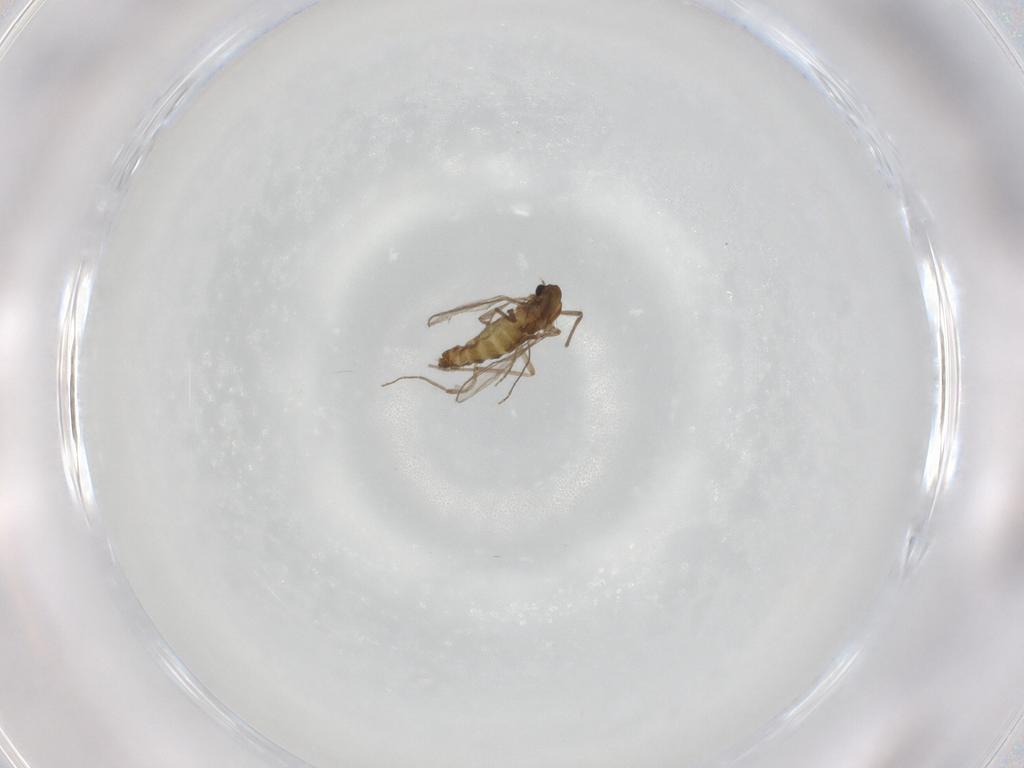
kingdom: Animalia
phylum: Arthropoda
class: Insecta
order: Diptera
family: Chironomidae
